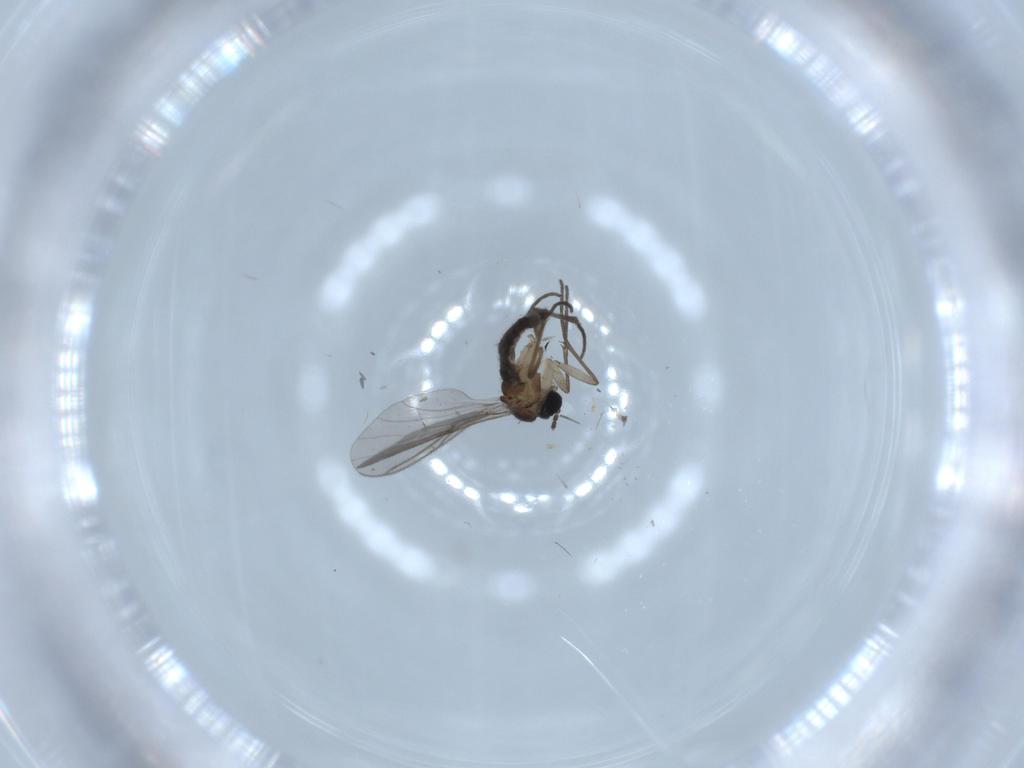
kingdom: Animalia
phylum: Arthropoda
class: Insecta
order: Diptera
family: Sciaridae
